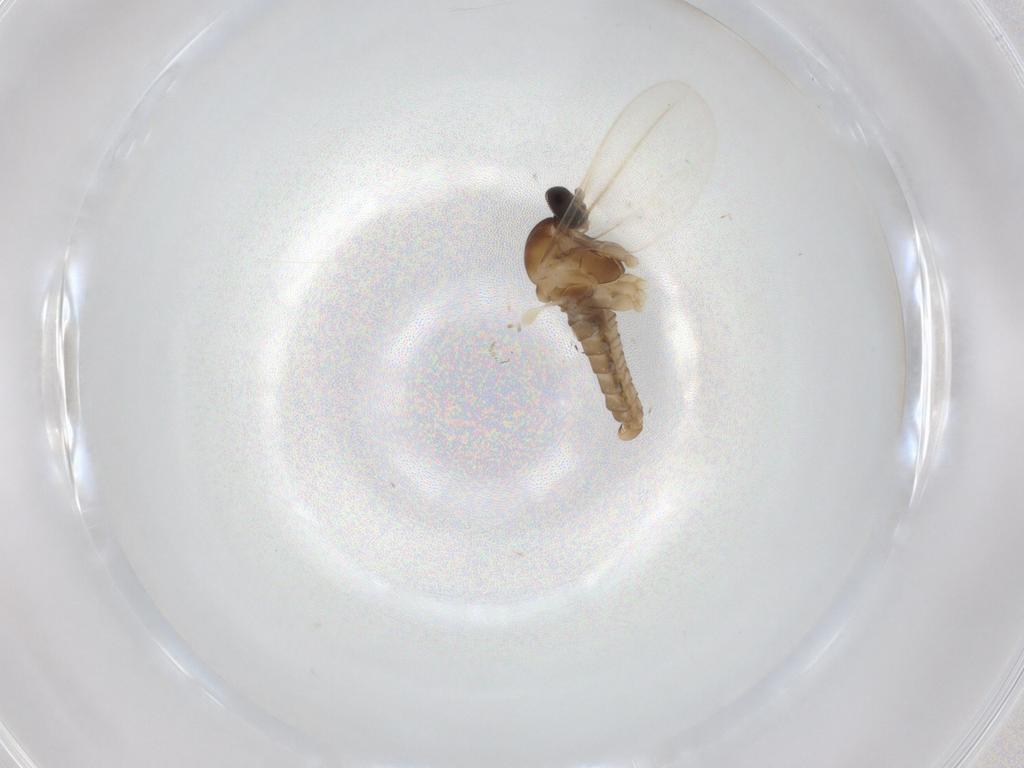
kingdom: Animalia
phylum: Arthropoda
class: Insecta
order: Diptera
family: Cecidomyiidae
